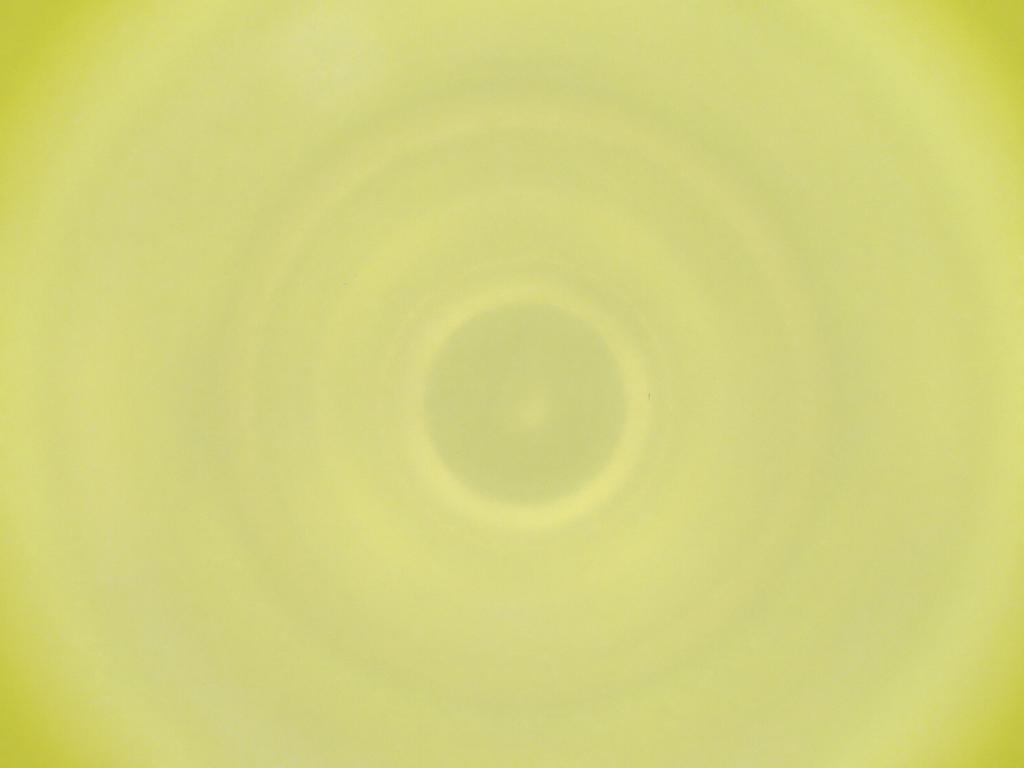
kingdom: Animalia
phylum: Arthropoda
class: Insecta
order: Diptera
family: Cecidomyiidae
